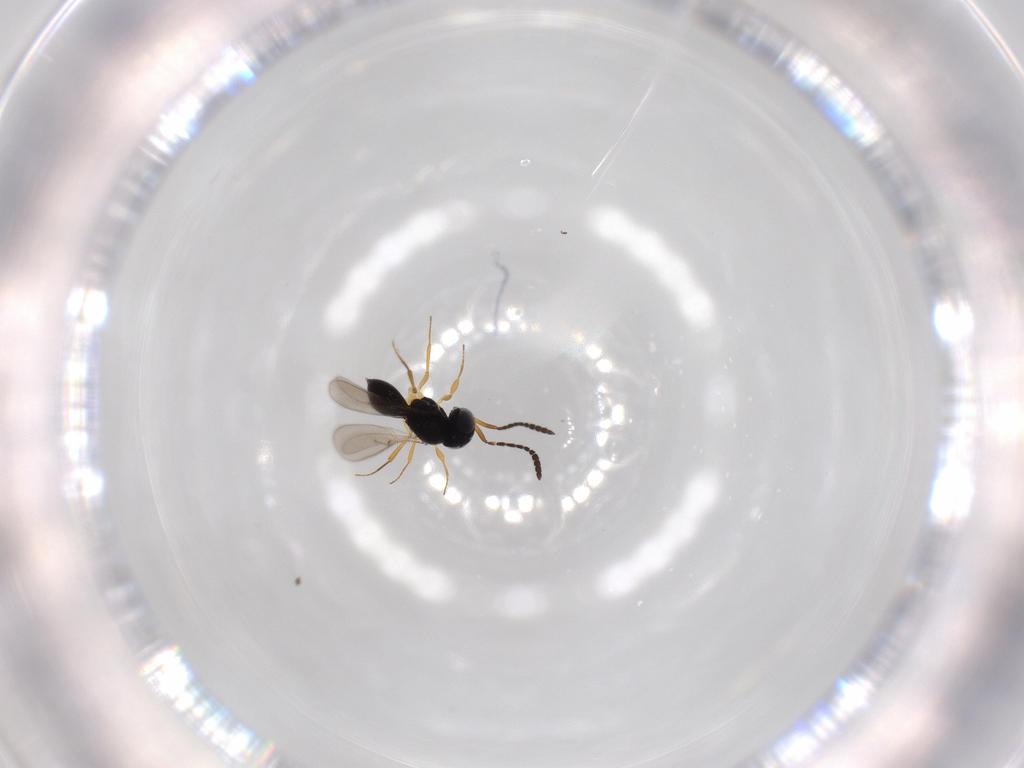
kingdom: Animalia
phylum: Arthropoda
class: Insecta
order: Hymenoptera
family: Scelionidae
